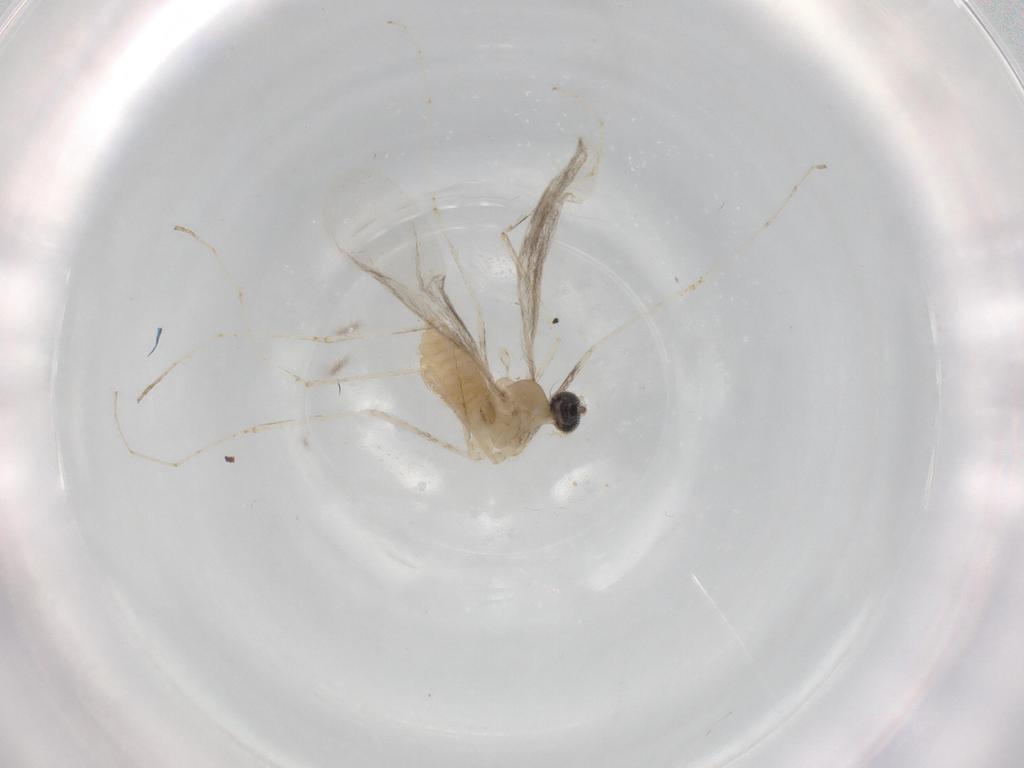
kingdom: Animalia
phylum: Arthropoda
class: Insecta
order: Diptera
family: Cecidomyiidae
